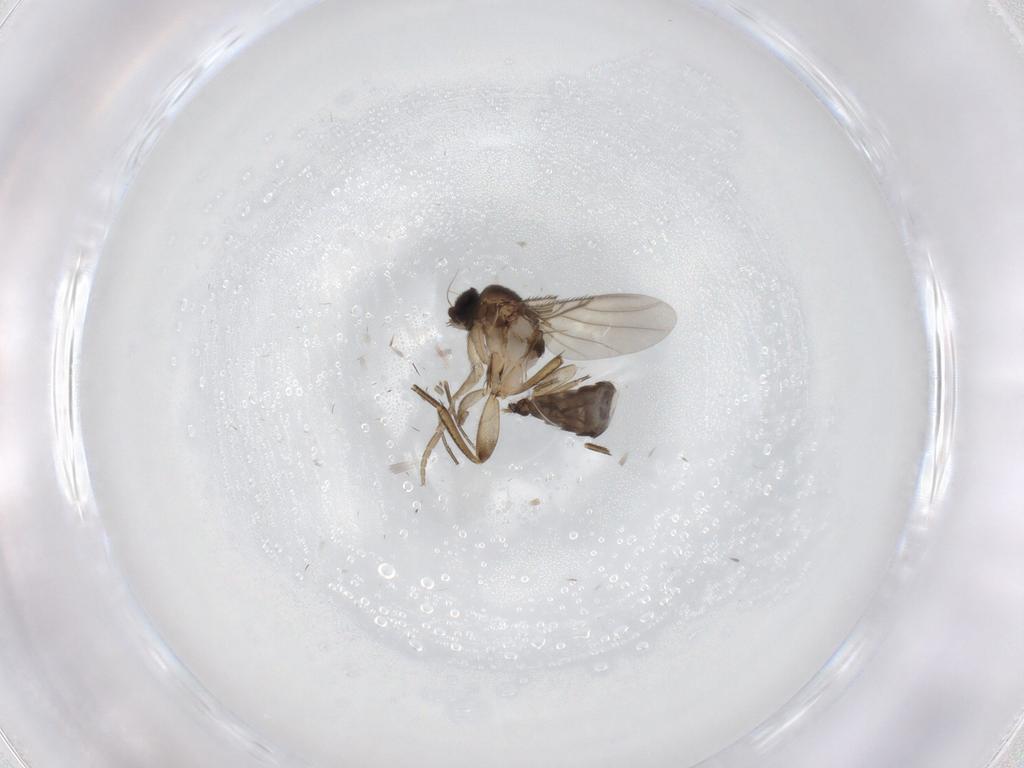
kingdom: Animalia
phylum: Arthropoda
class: Insecta
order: Diptera
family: Phoridae
